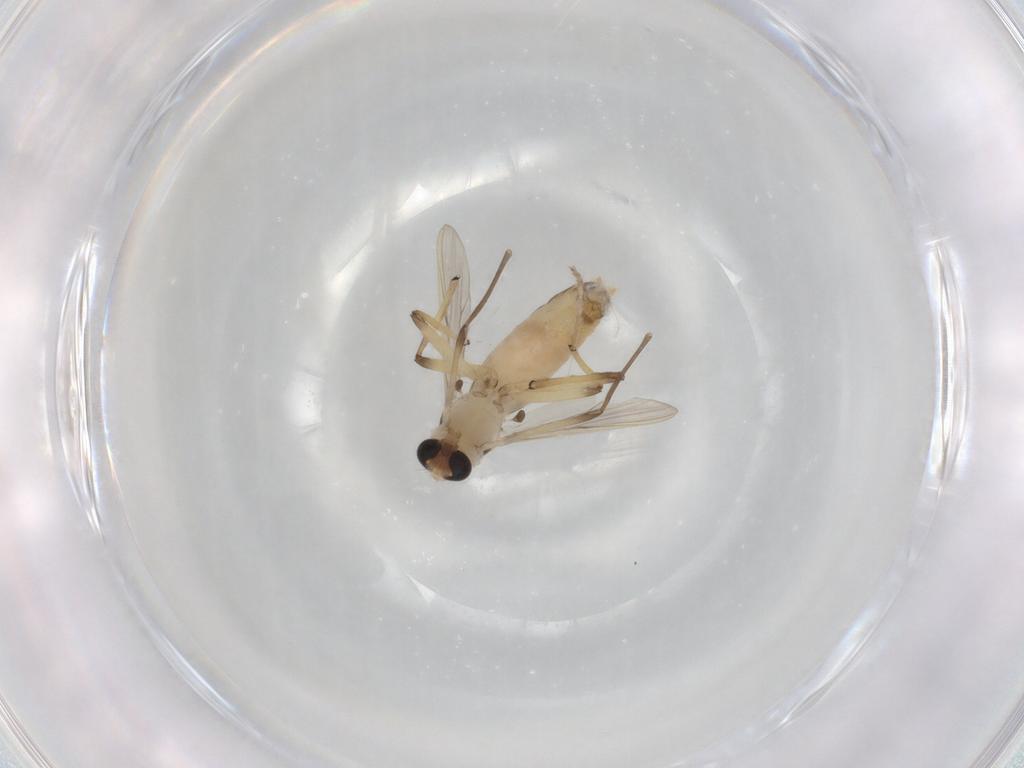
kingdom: Animalia
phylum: Arthropoda
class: Insecta
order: Diptera
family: Chironomidae
